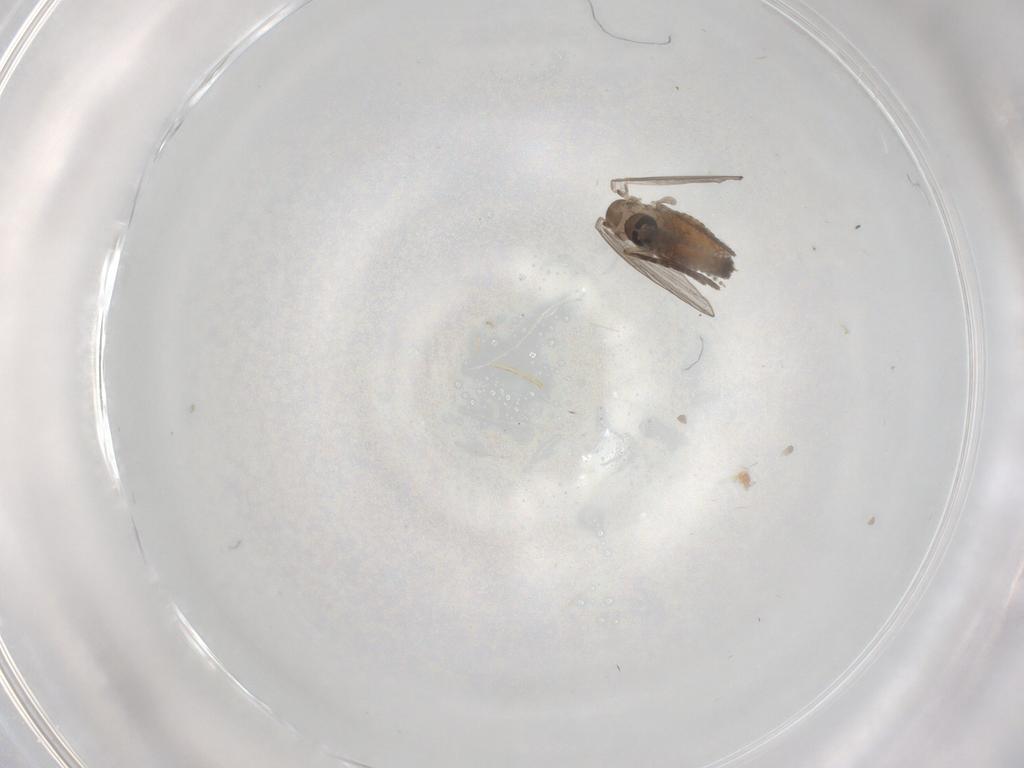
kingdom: Animalia
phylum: Arthropoda
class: Insecta
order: Diptera
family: Psychodidae
